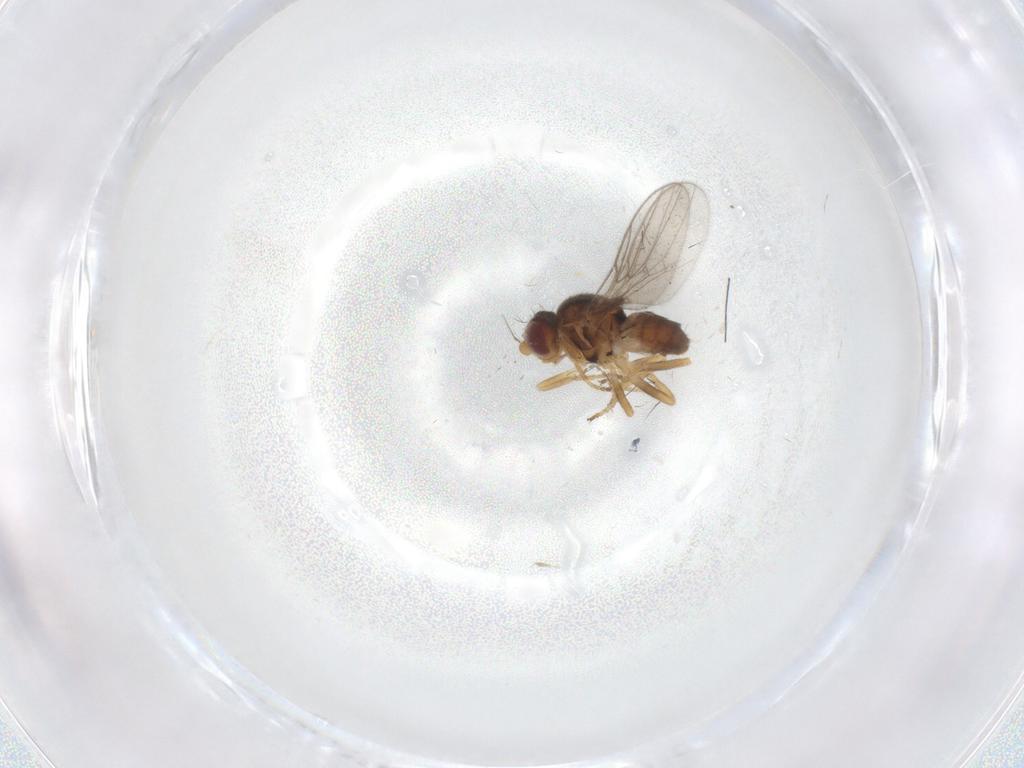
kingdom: Animalia
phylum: Arthropoda
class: Insecta
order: Diptera
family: Chloropidae
